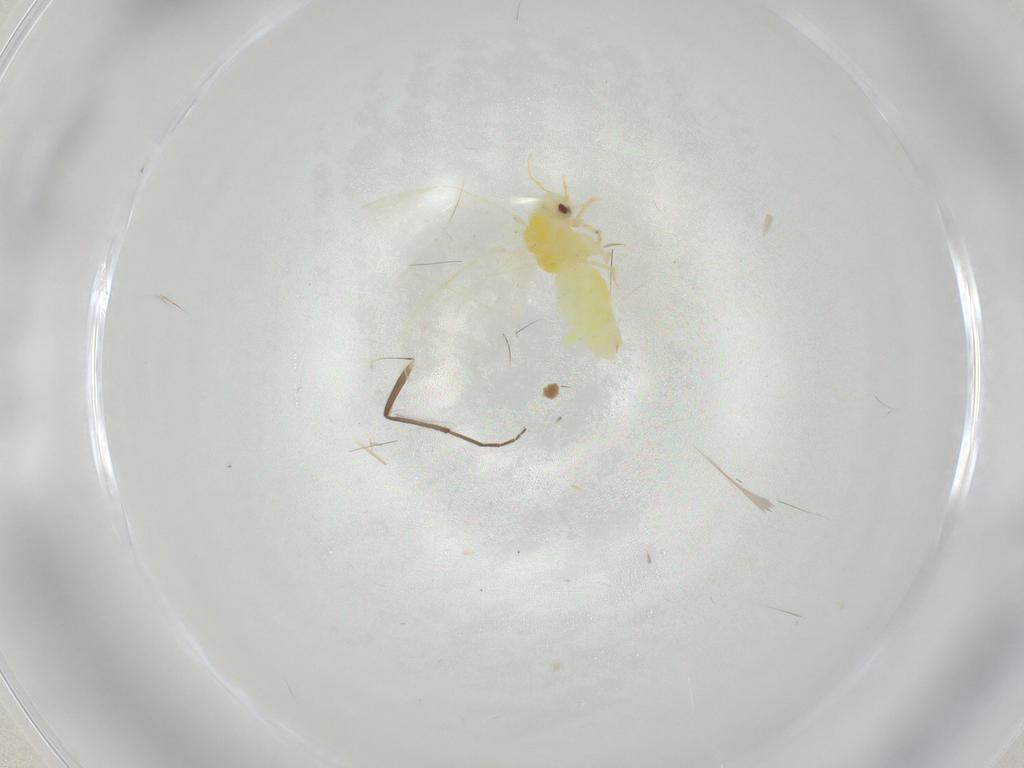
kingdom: Animalia
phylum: Arthropoda
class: Insecta
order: Hemiptera
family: Aleyrodidae
